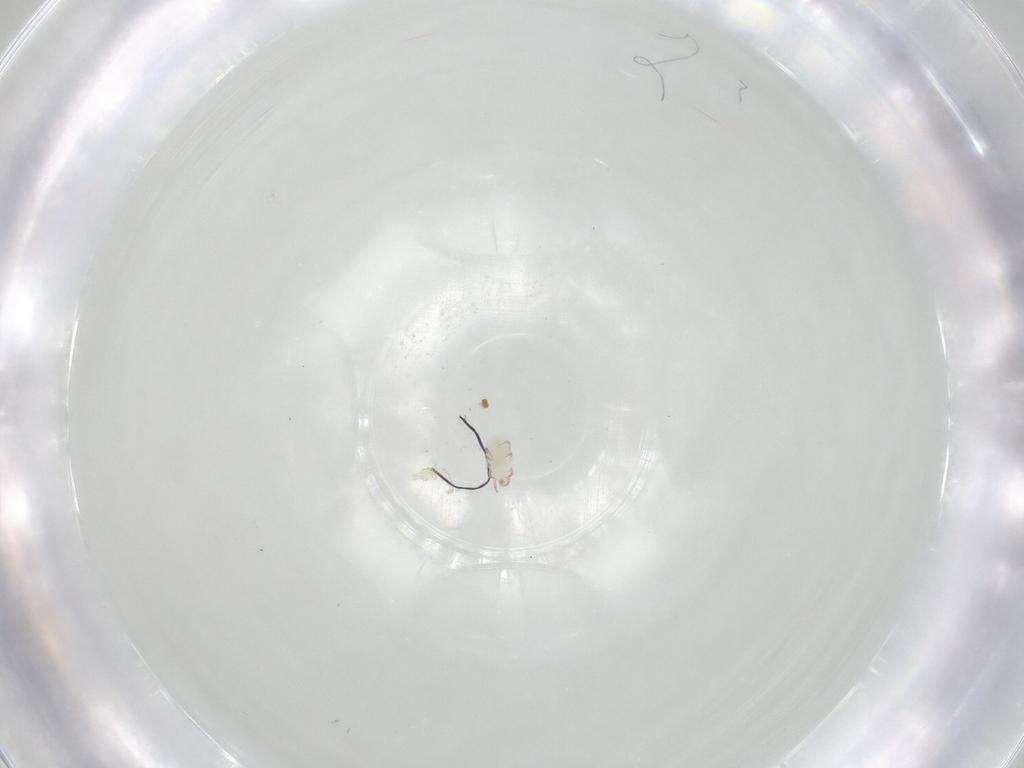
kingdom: Animalia
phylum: Arthropoda
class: Arachnida
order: Sarcoptiformes
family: Acaridae
